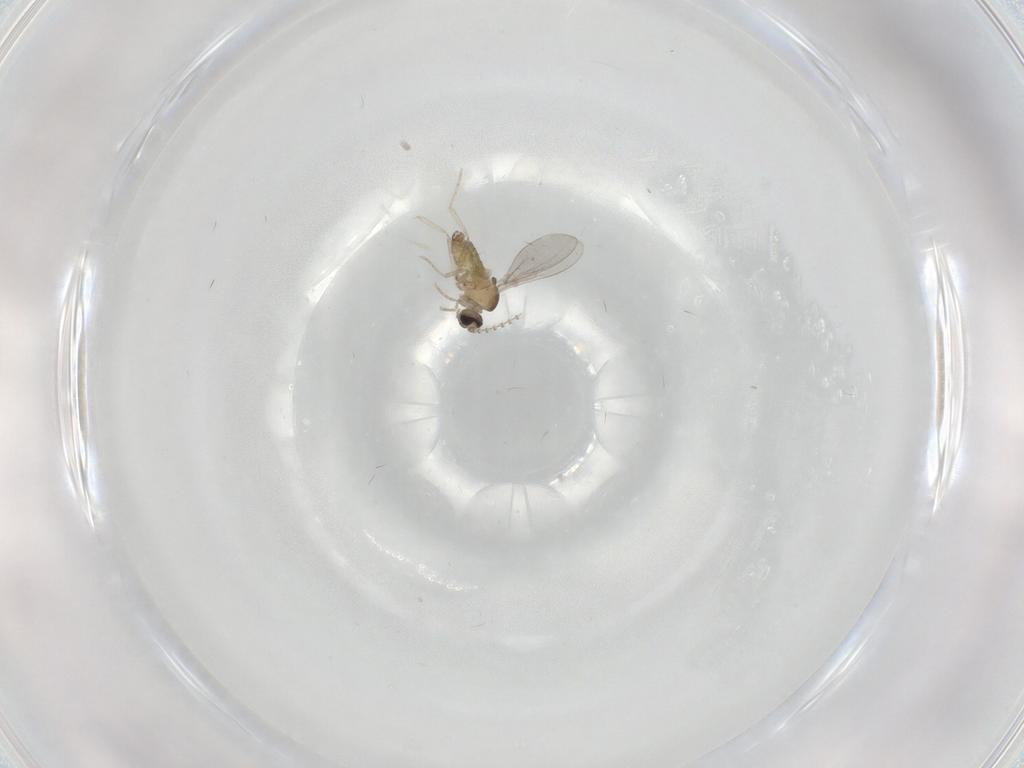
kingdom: Animalia
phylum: Arthropoda
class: Insecta
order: Diptera
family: Cecidomyiidae
